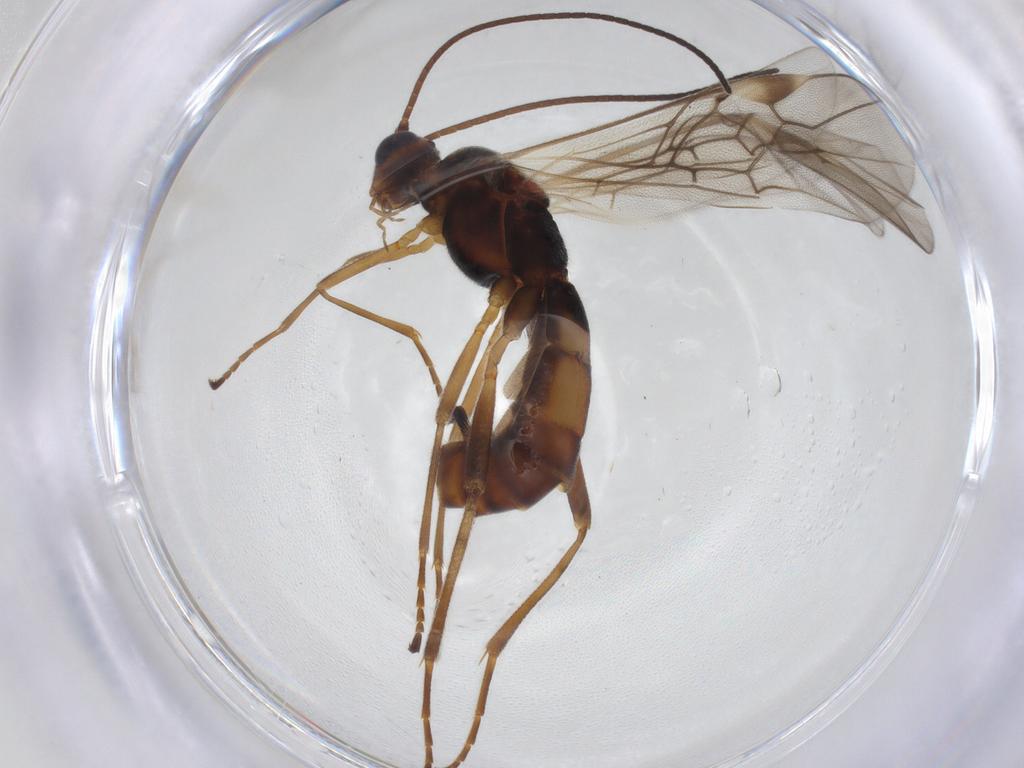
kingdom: Animalia
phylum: Arthropoda
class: Insecta
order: Hymenoptera
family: Braconidae
